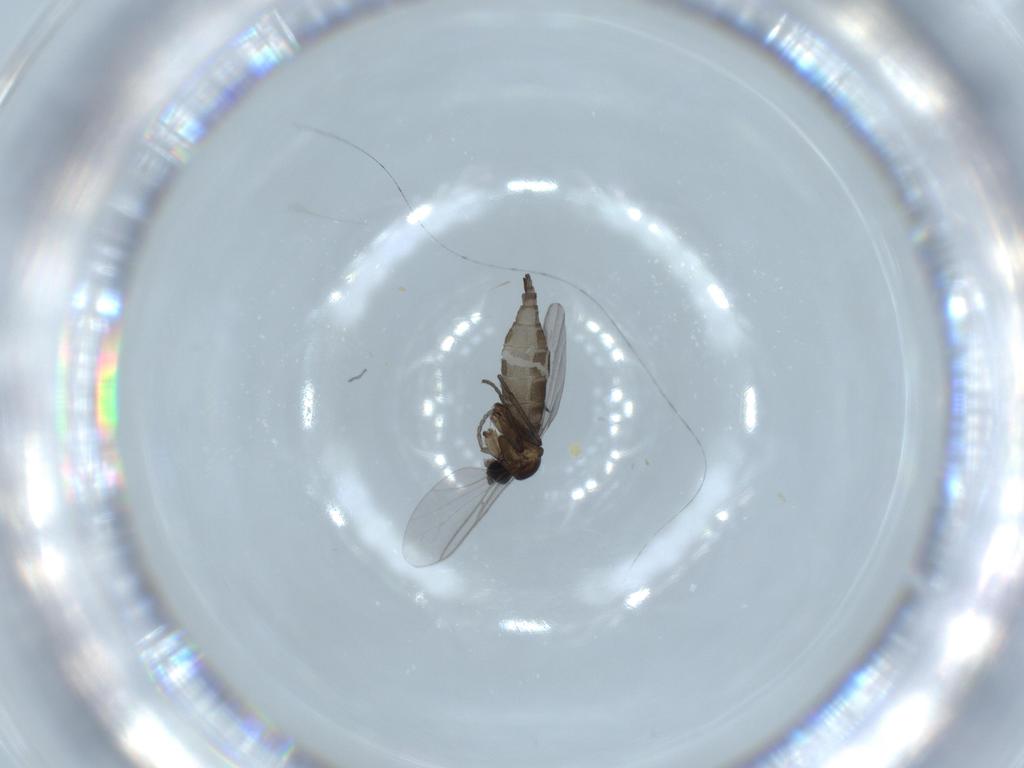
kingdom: Animalia
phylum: Arthropoda
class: Insecta
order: Diptera
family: Sciaridae
